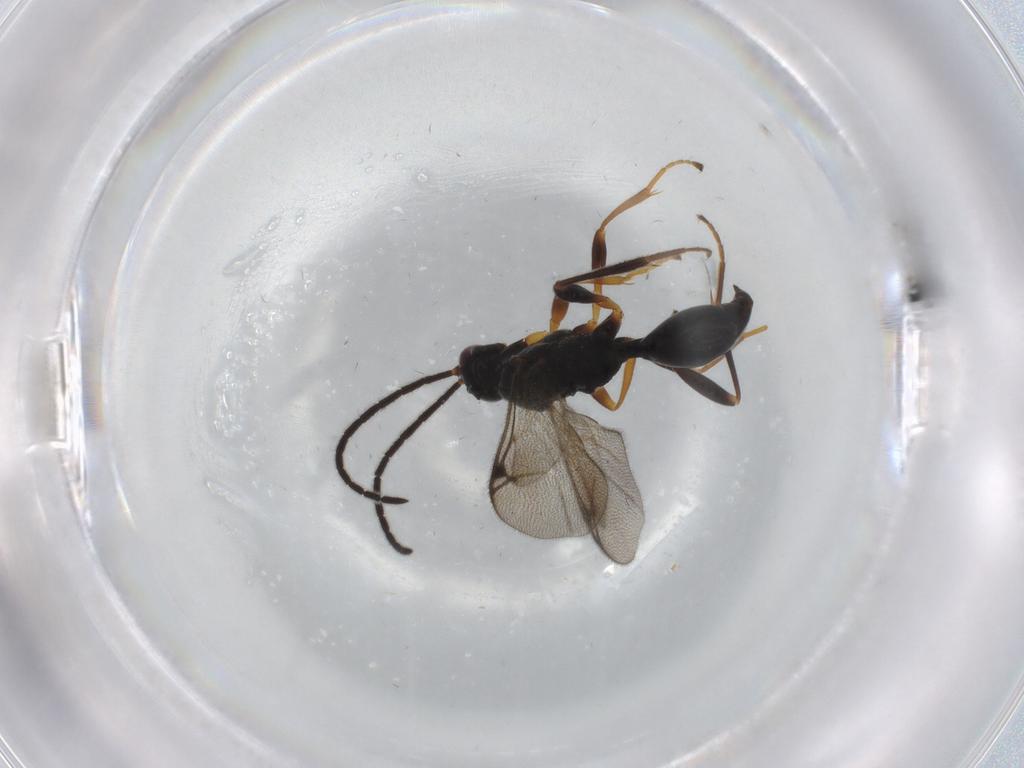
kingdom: Animalia
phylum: Arthropoda
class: Insecta
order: Hymenoptera
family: Proctotrupidae
